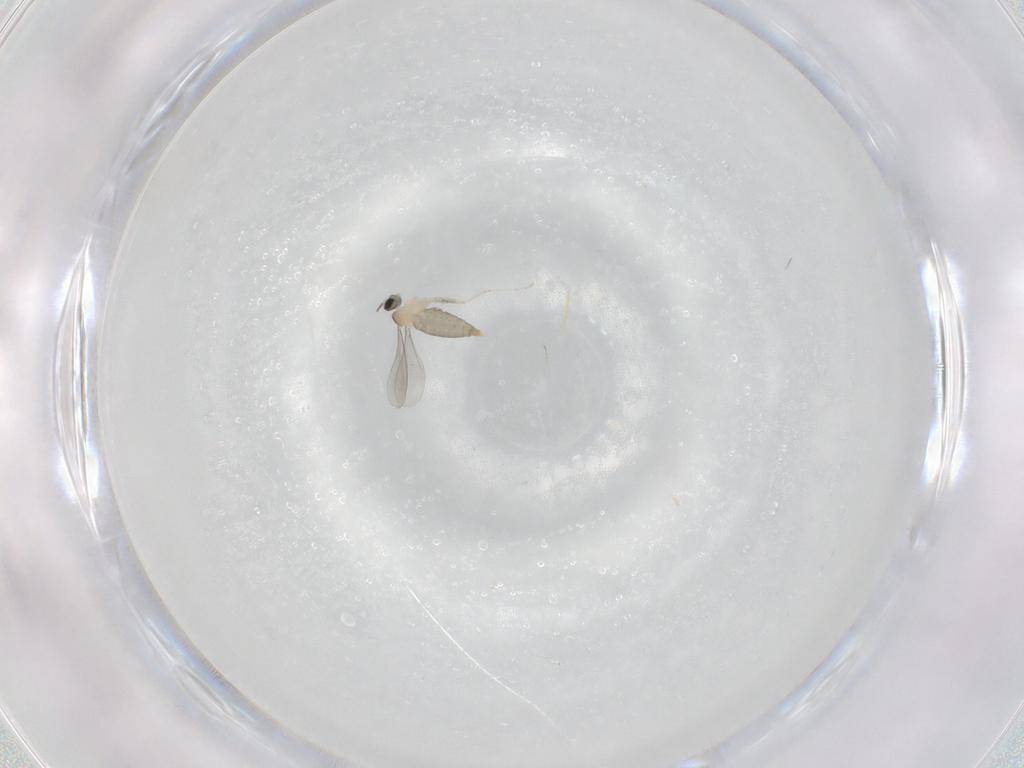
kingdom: Animalia
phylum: Arthropoda
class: Insecta
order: Diptera
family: Cecidomyiidae
